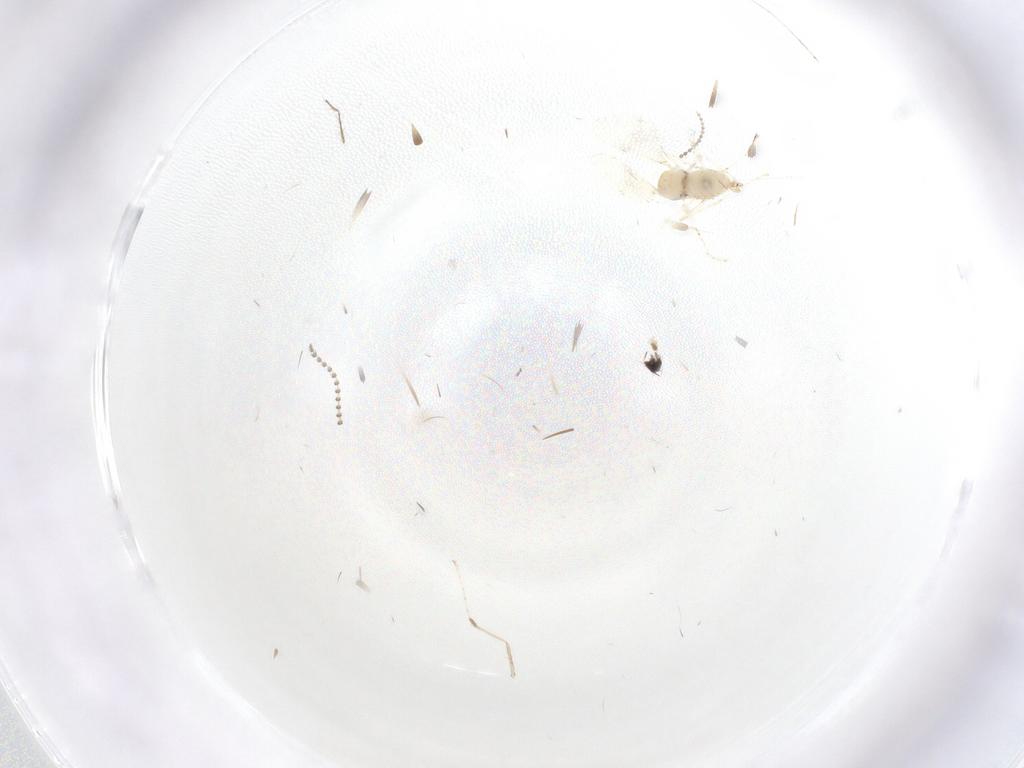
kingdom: Animalia
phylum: Arthropoda
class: Insecta
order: Diptera
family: Cecidomyiidae
